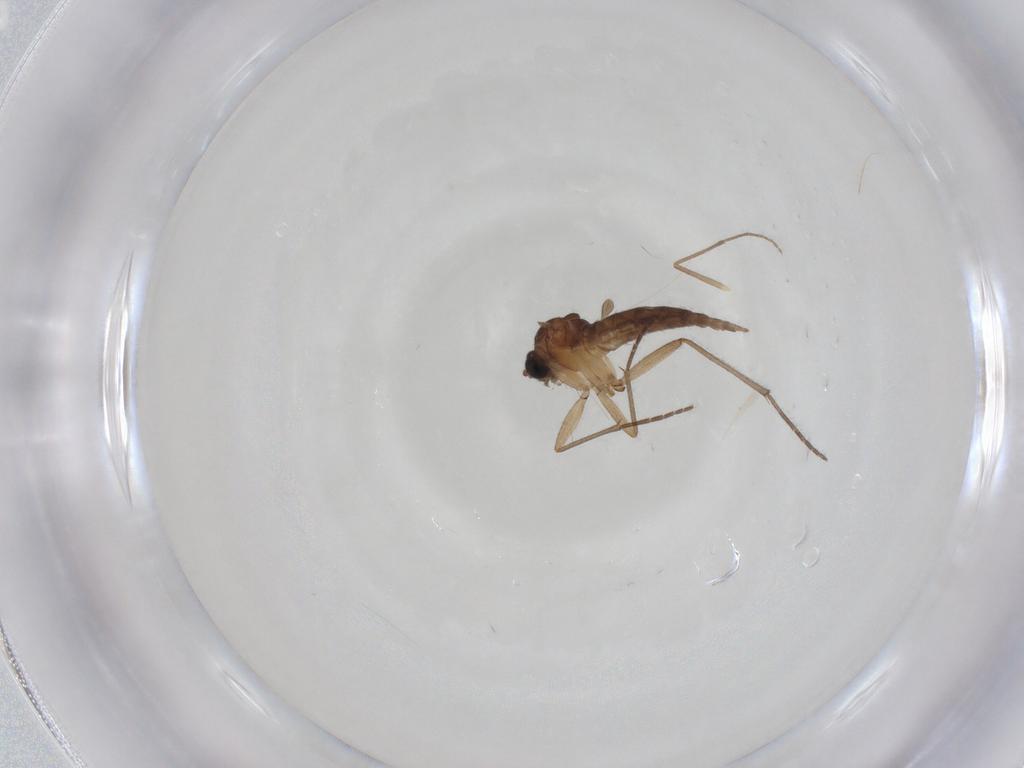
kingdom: Animalia
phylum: Arthropoda
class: Insecta
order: Diptera
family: Sciaridae
